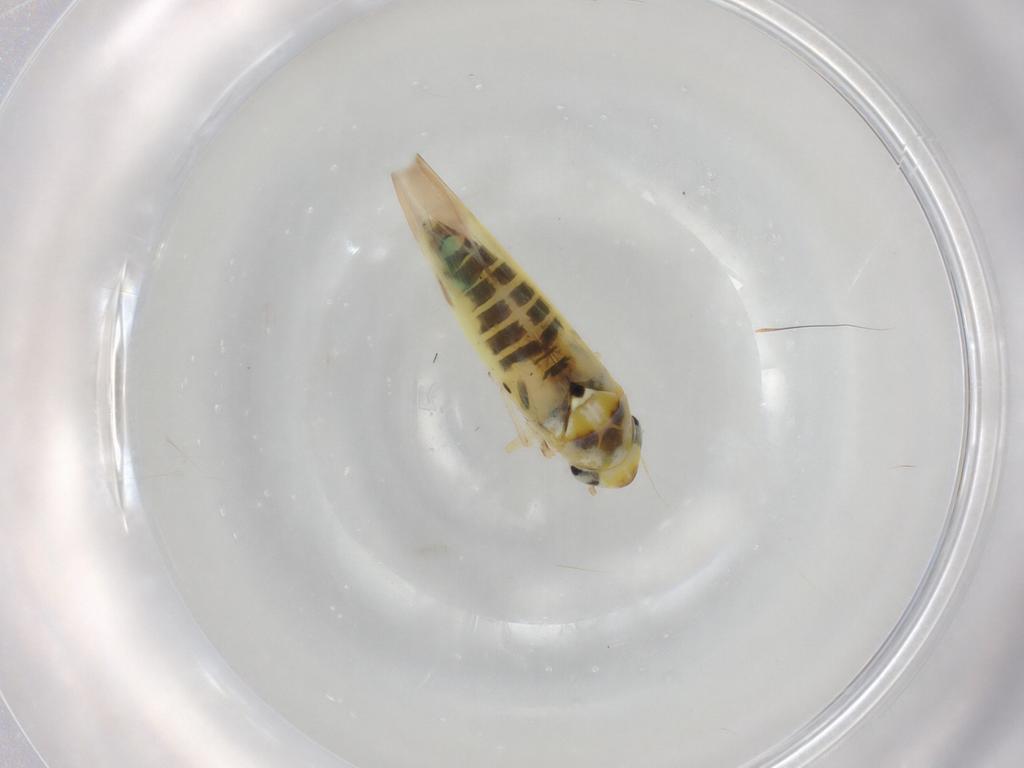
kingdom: Animalia
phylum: Arthropoda
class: Insecta
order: Hemiptera
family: Cicadellidae
